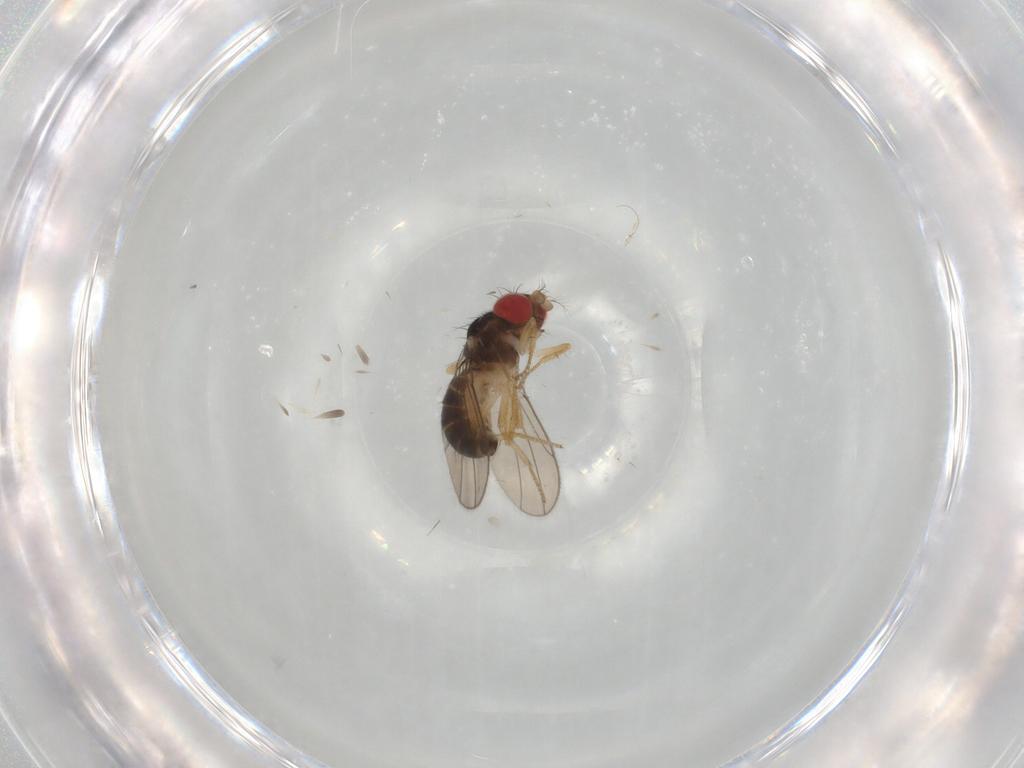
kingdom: Animalia
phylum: Arthropoda
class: Insecta
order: Diptera
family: Drosophilidae
